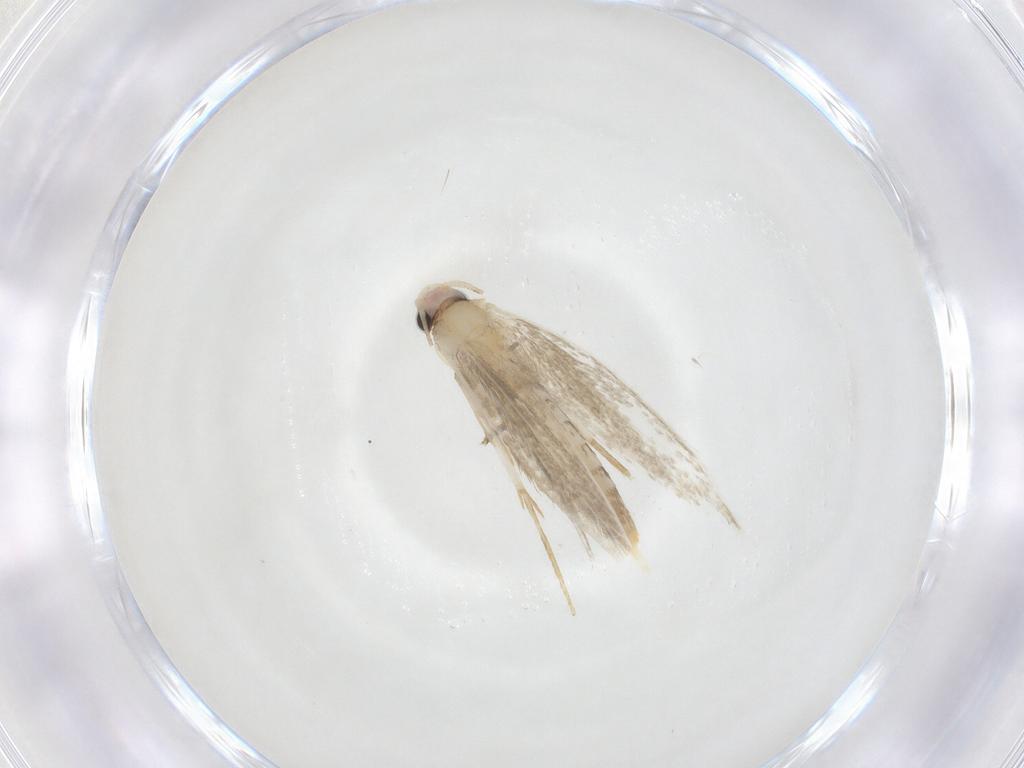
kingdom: Animalia
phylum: Arthropoda
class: Insecta
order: Lepidoptera
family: Tineidae
